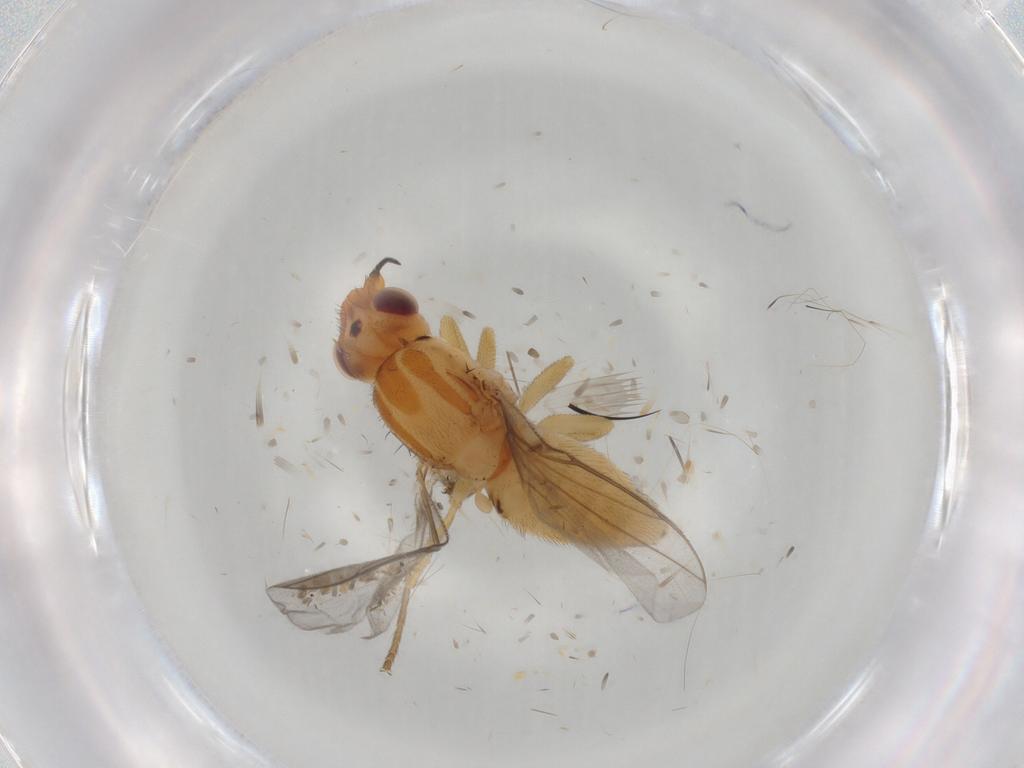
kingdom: Animalia
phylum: Arthropoda
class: Insecta
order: Diptera
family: Chloropidae
